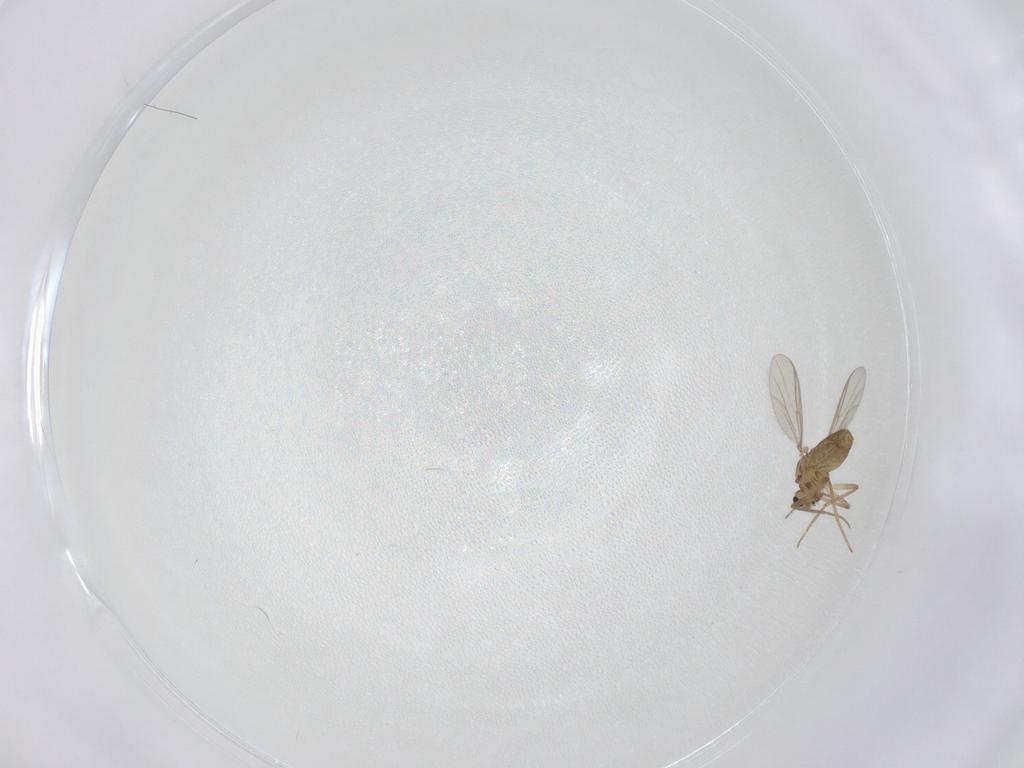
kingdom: Animalia
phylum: Arthropoda
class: Insecta
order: Diptera
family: Chironomidae
